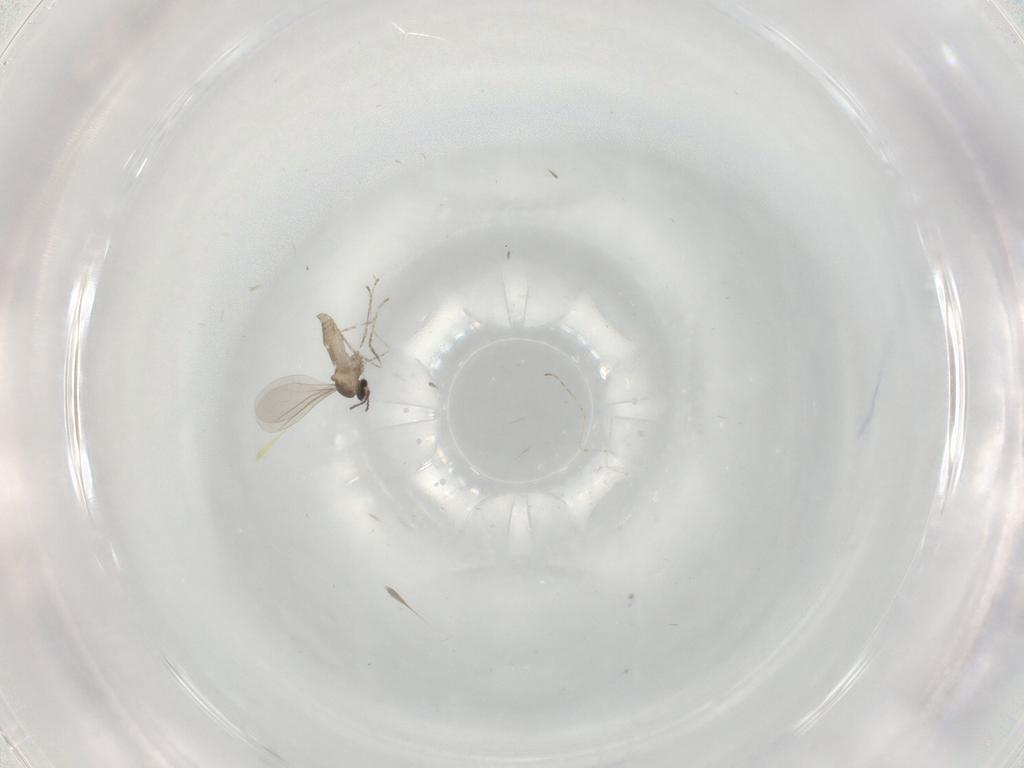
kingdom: Animalia
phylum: Arthropoda
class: Insecta
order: Diptera
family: Cecidomyiidae
